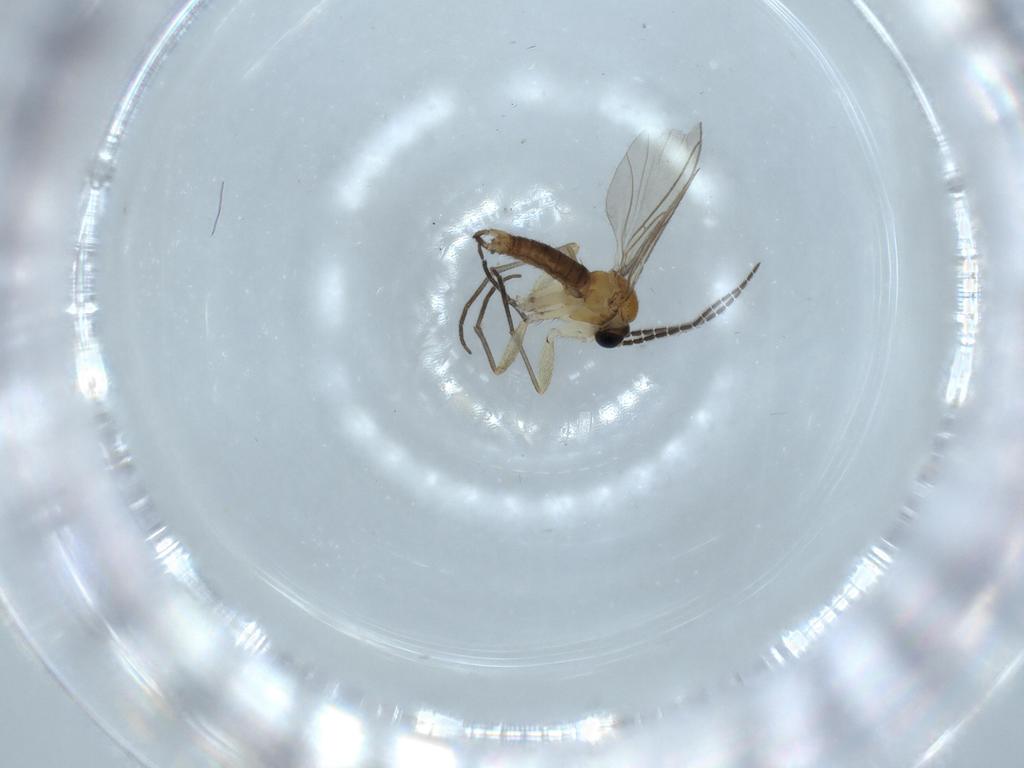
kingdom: Animalia
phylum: Arthropoda
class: Insecta
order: Diptera
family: Sciaridae
